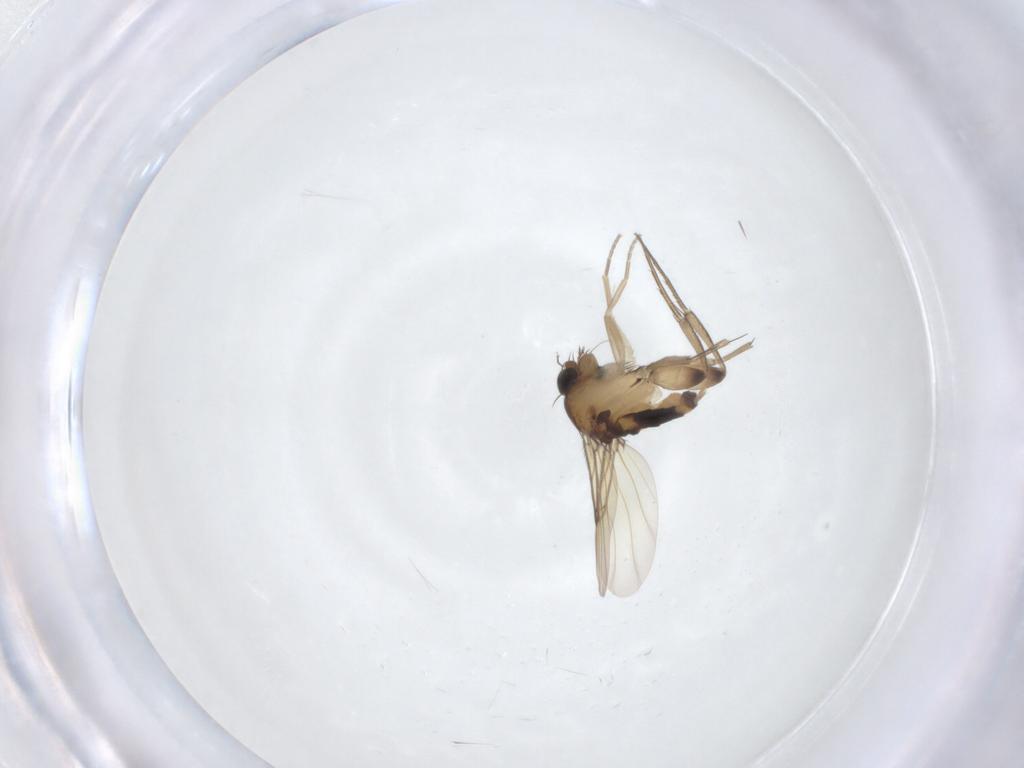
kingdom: Animalia
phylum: Arthropoda
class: Insecta
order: Diptera
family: Phoridae
